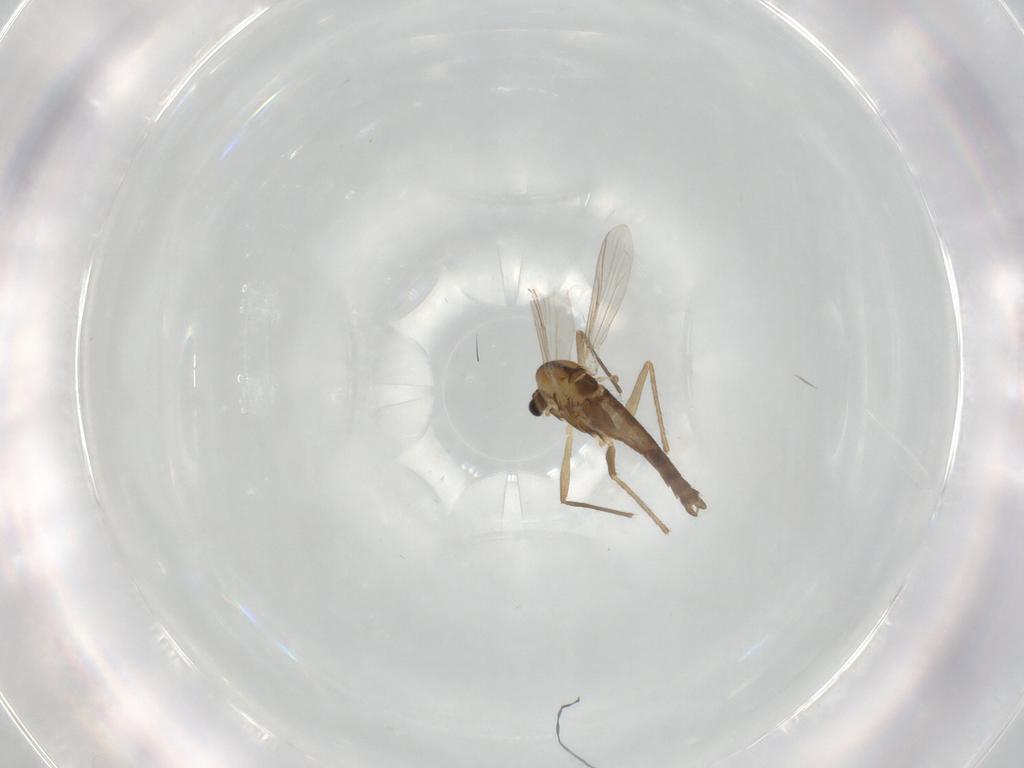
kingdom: Animalia
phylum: Arthropoda
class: Insecta
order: Diptera
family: Chironomidae
